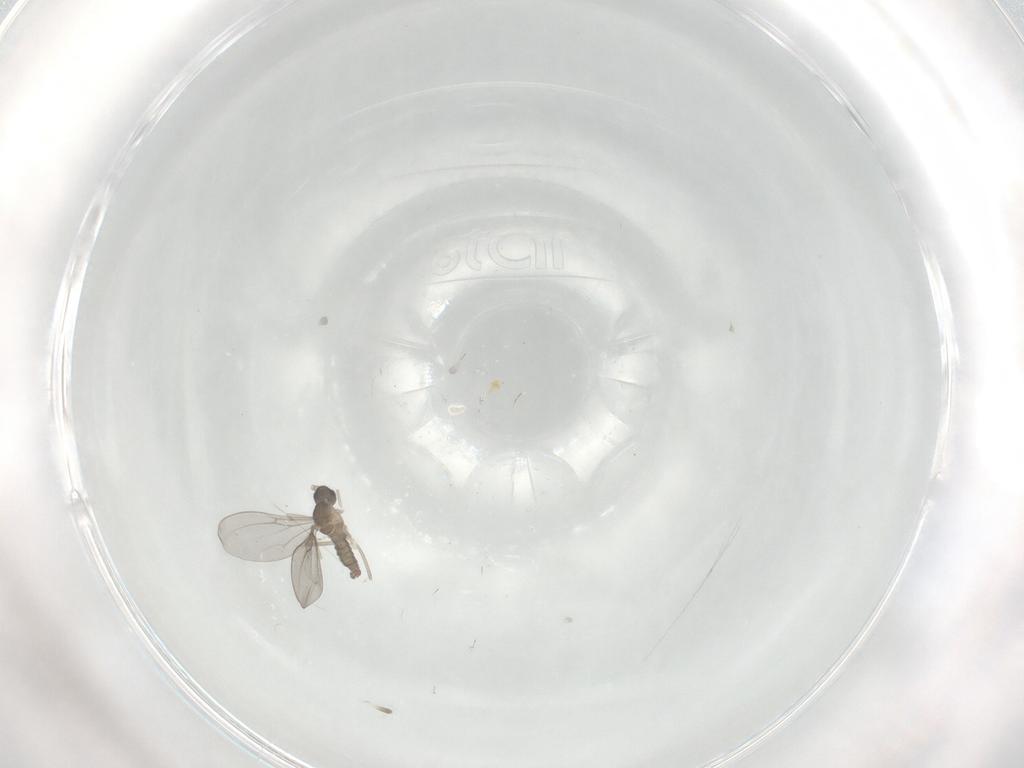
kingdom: Animalia
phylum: Arthropoda
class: Insecta
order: Diptera
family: Cecidomyiidae
